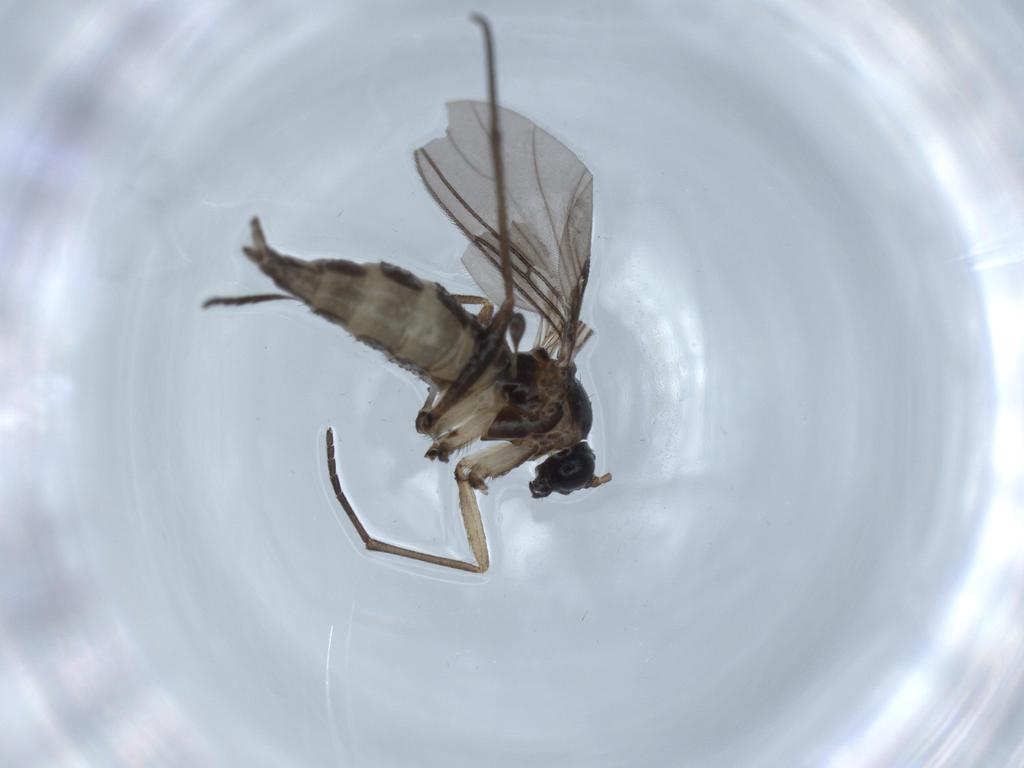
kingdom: Animalia
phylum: Arthropoda
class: Insecta
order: Diptera
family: Sciaridae
